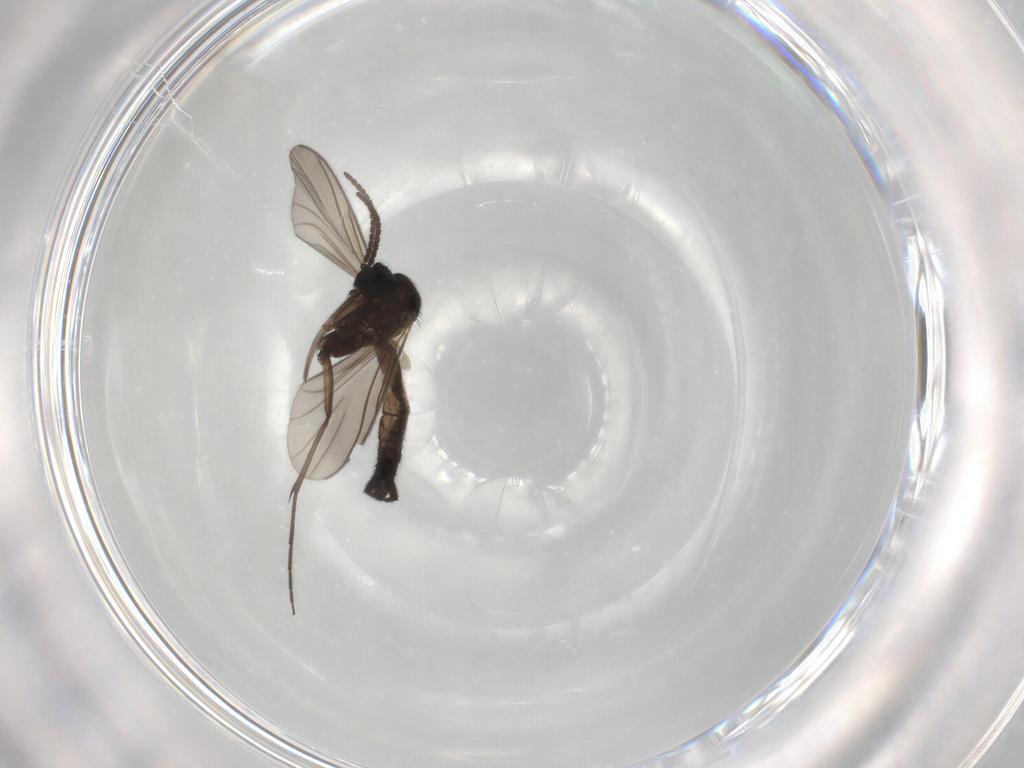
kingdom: Animalia
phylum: Arthropoda
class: Insecta
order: Diptera
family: Keroplatidae
